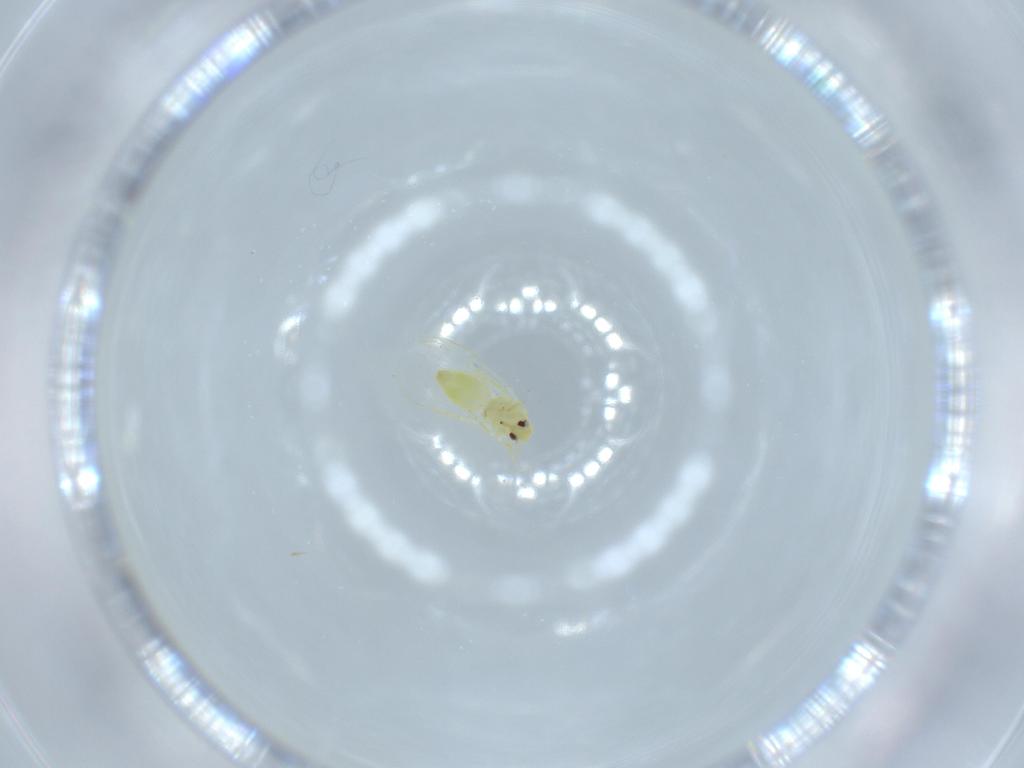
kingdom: Animalia
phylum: Arthropoda
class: Insecta
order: Hemiptera
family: Aleyrodidae
